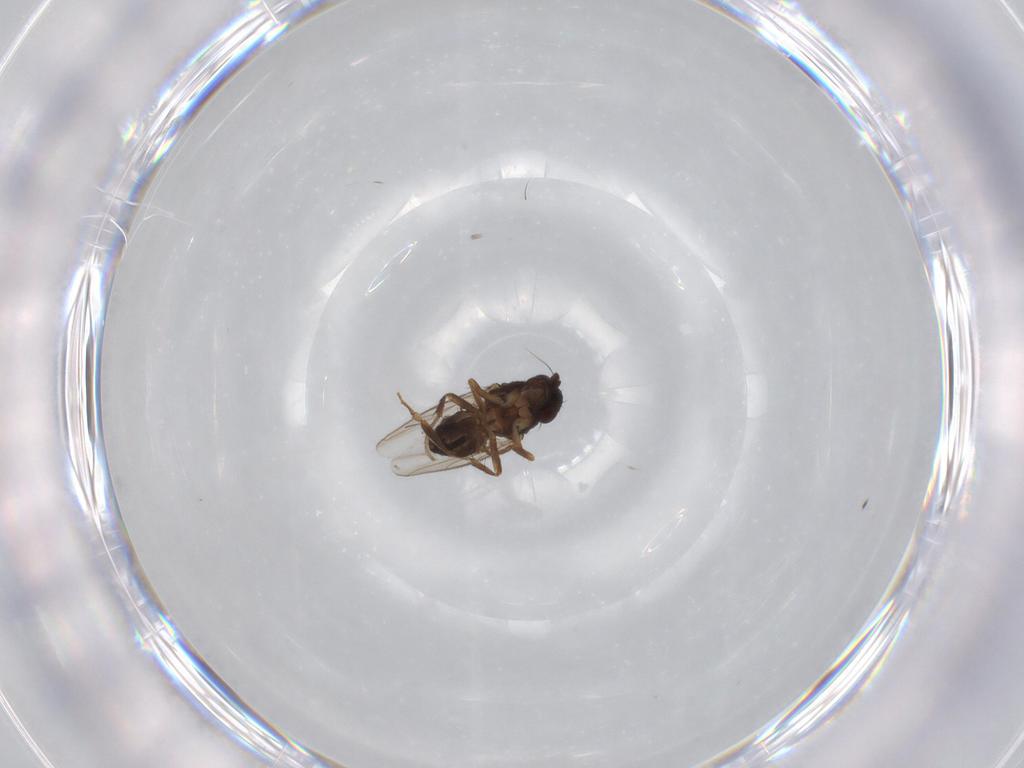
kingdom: Animalia
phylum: Arthropoda
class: Insecta
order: Diptera
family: Sphaeroceridae
